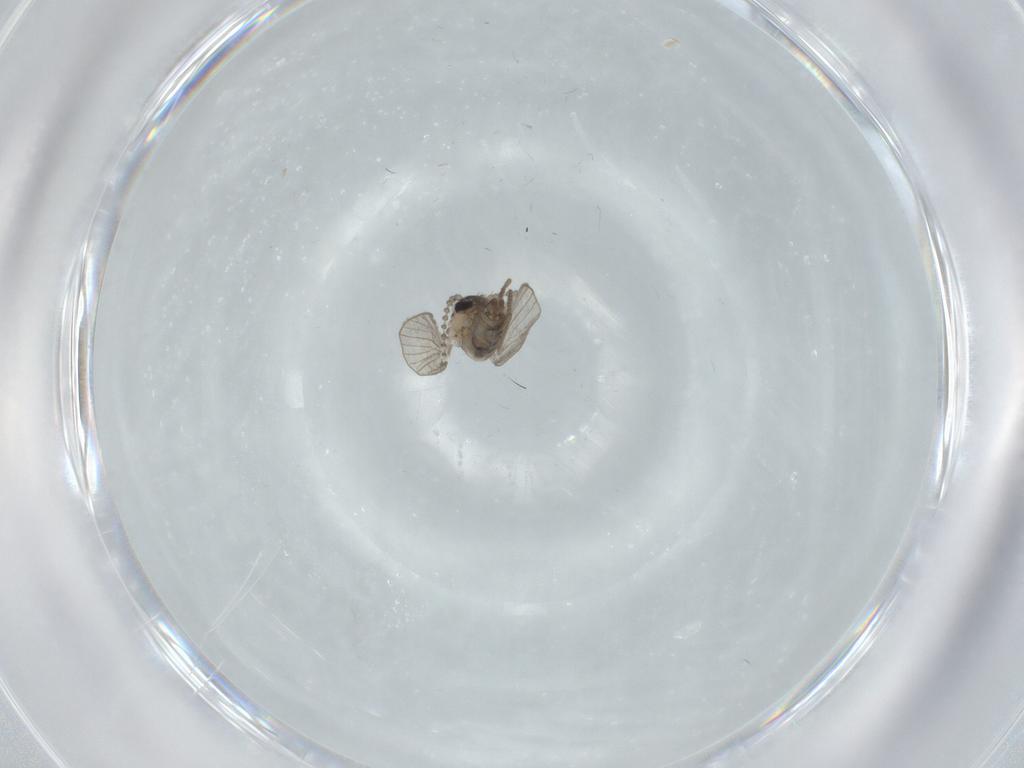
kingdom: Animalia
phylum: Arthropoda
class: Insecta
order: Diptera
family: Psychodidae
